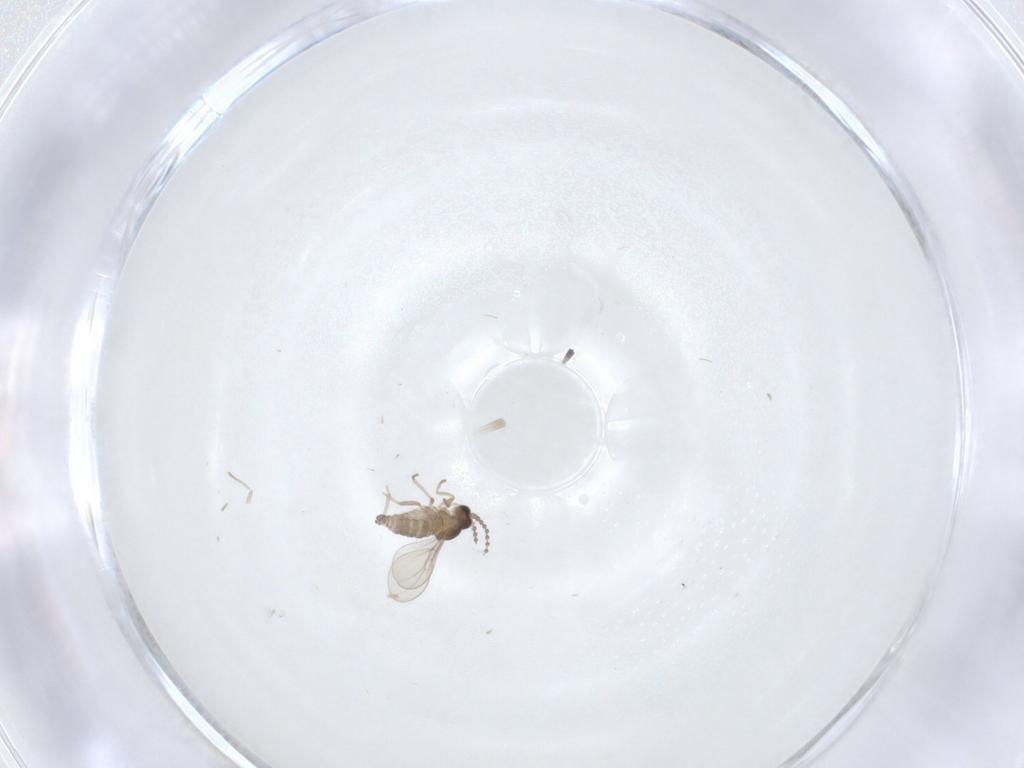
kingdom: Animalia
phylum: Arthropoda
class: Insecta
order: Diptera
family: Cecidomyiidae
